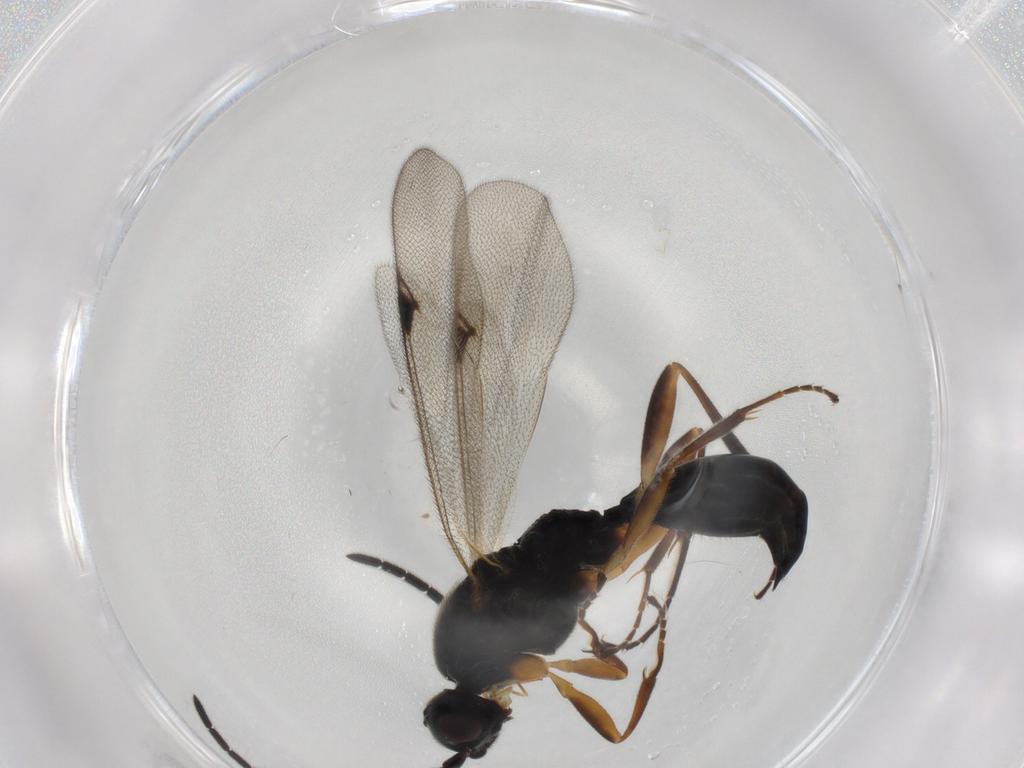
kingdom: Animalia
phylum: Arthropoda
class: Insecta
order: Hymenoptera
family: Proctotrupidae
